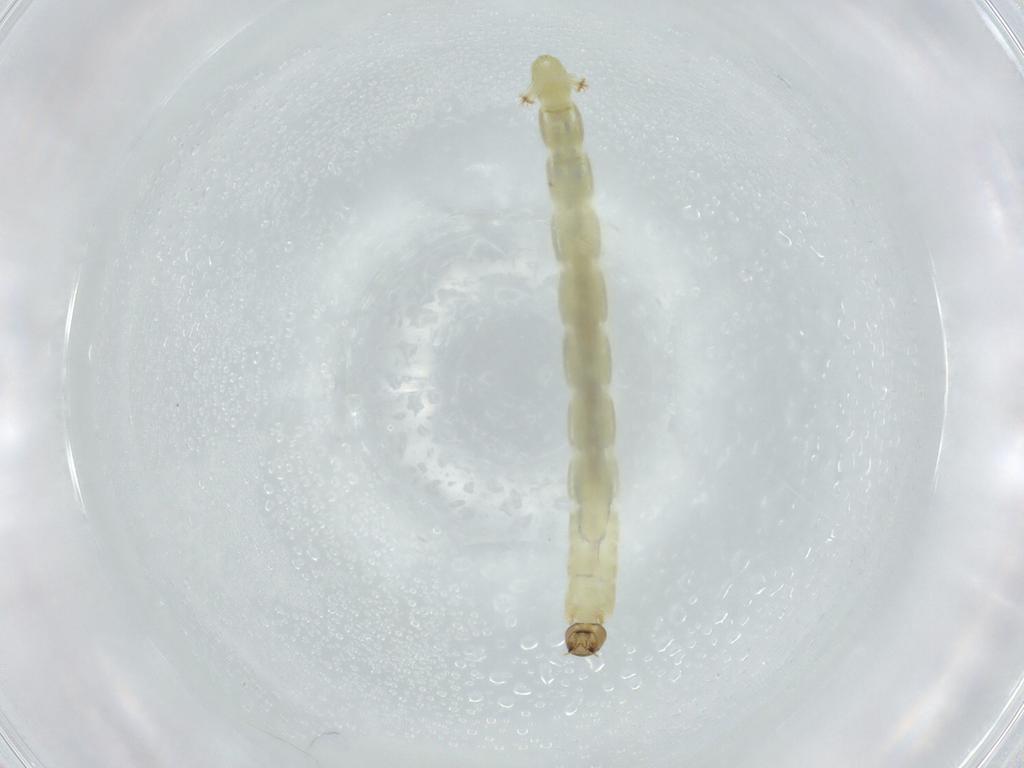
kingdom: Animalia
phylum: Arthropoda
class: Insecta
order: Diptera
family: Chironomidae
